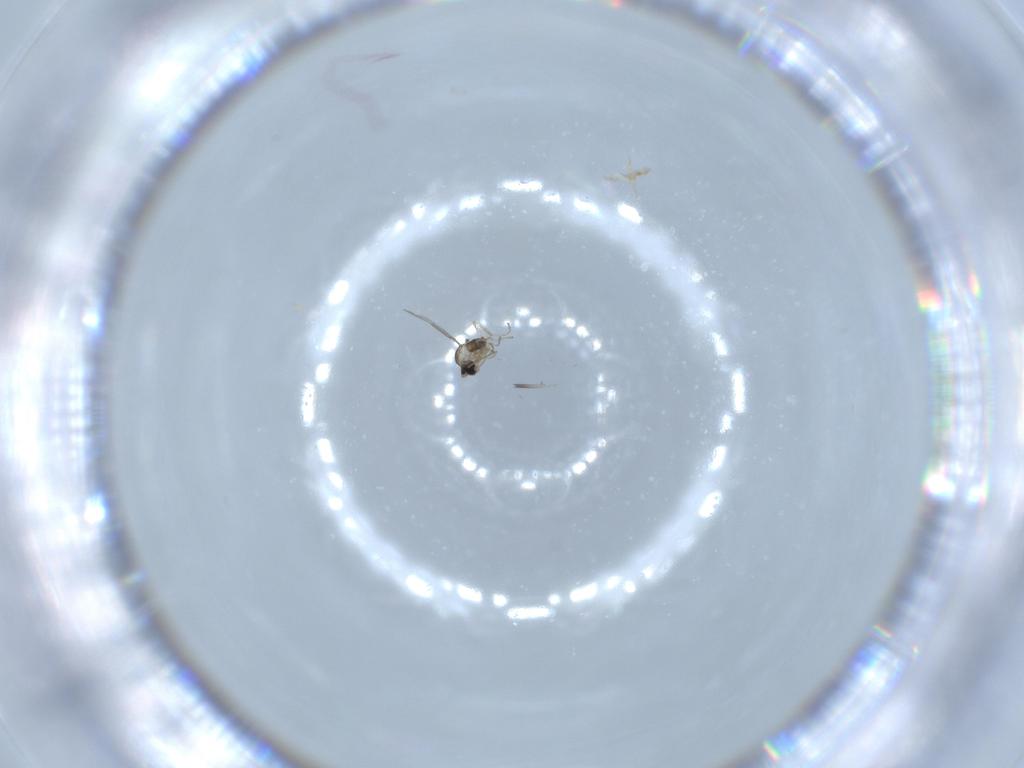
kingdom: Animalia
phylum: Arthropoda
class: Insecta
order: Diptera
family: Cecidomyiidae
